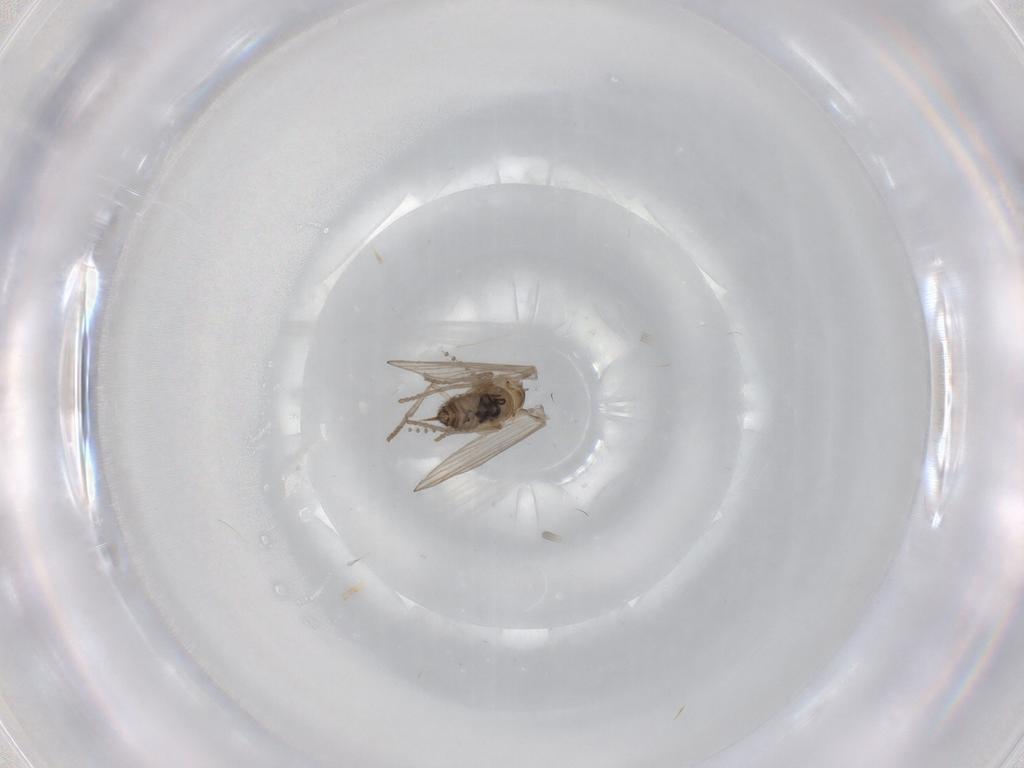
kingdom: Animalia
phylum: Arthropoda
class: Insecta
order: Diptera
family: Psychodidae
